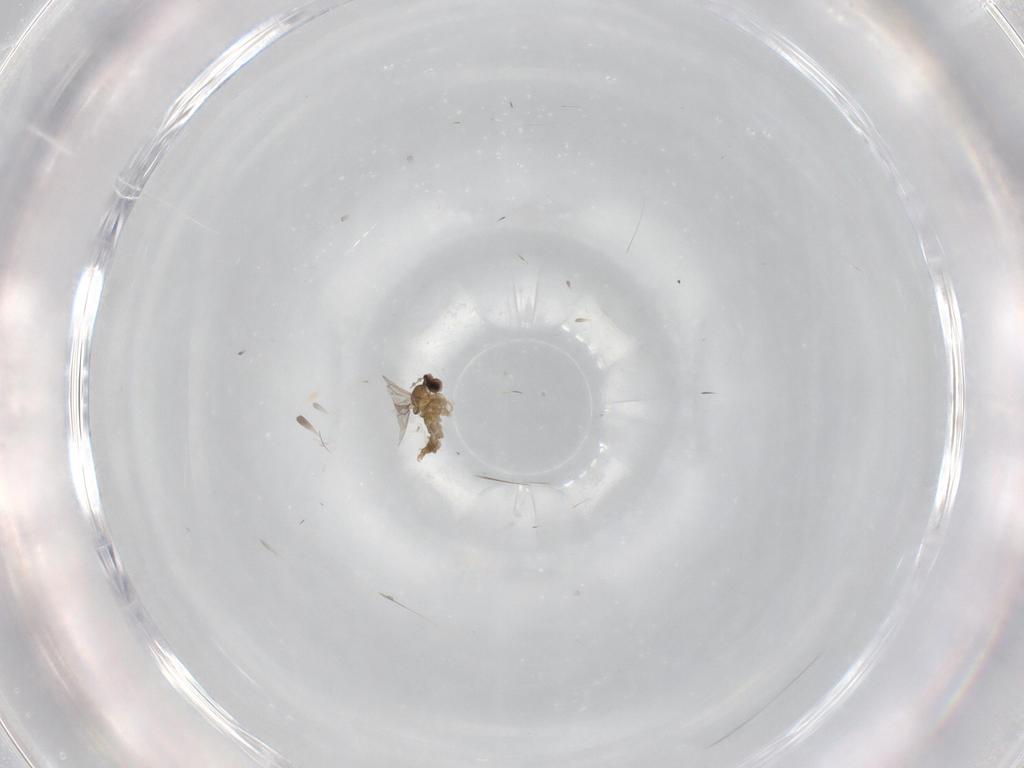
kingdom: Animalia
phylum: Arthropoda
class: Insecta
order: Diptera
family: Cecidomyiidae
